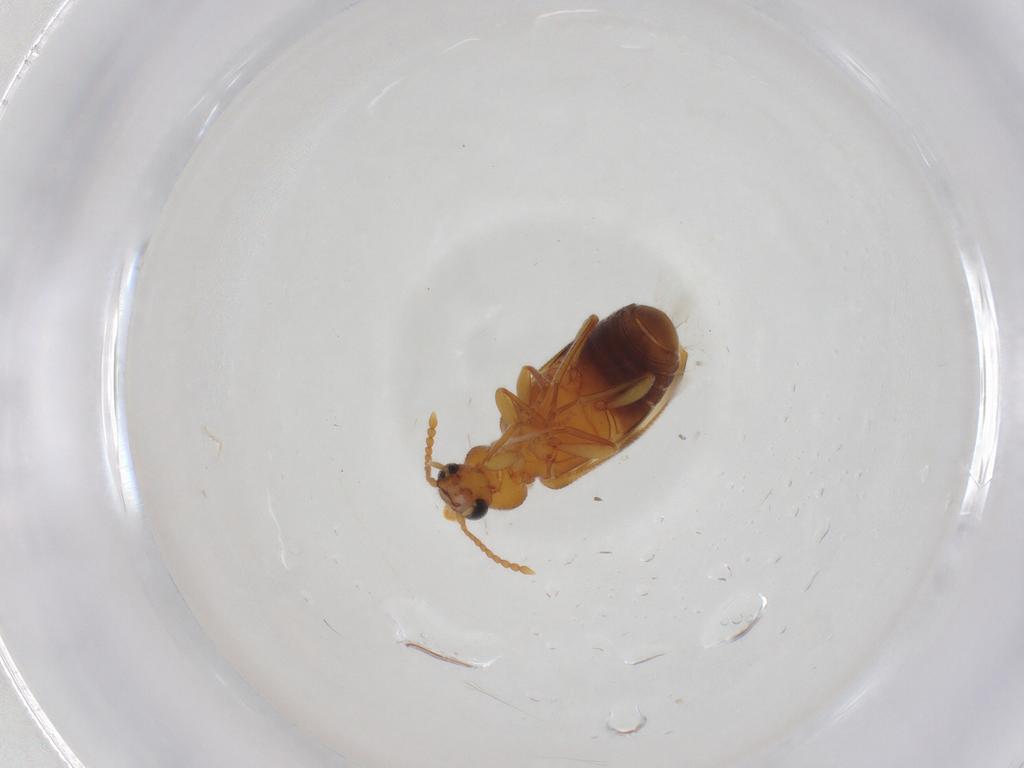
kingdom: Animalia
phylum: Arthropoda
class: Insecta
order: Coleoptera
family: Anthicidae
